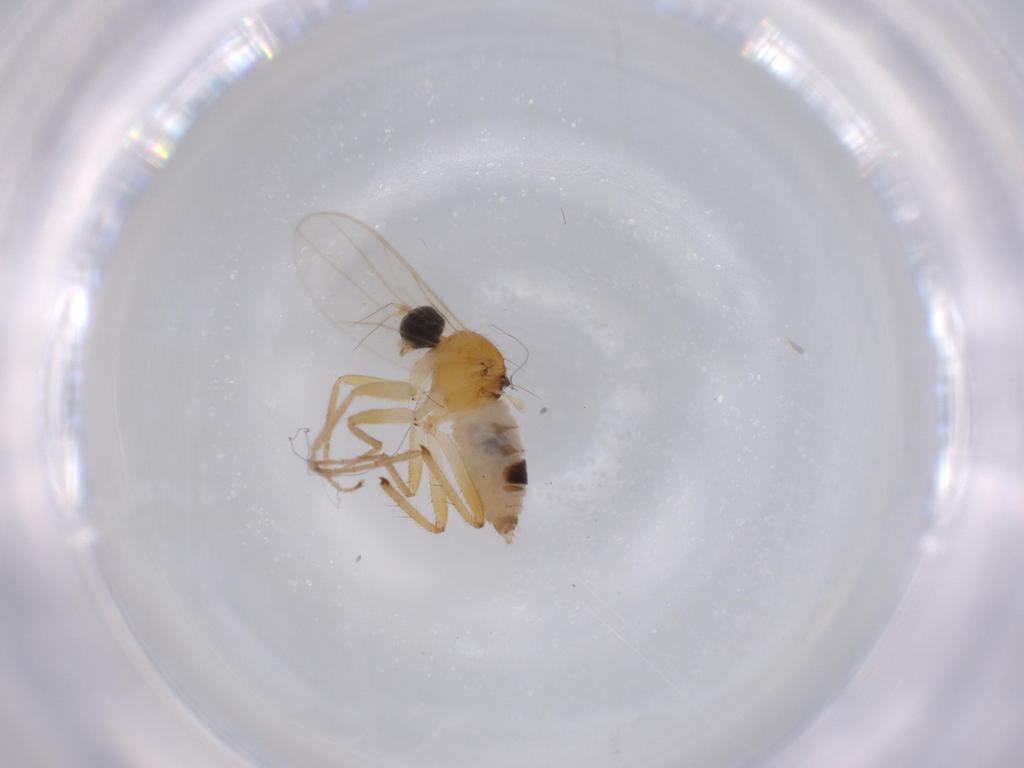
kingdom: Animalia
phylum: Arthropoda
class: Insecta
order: Diptera
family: Hybotidae
